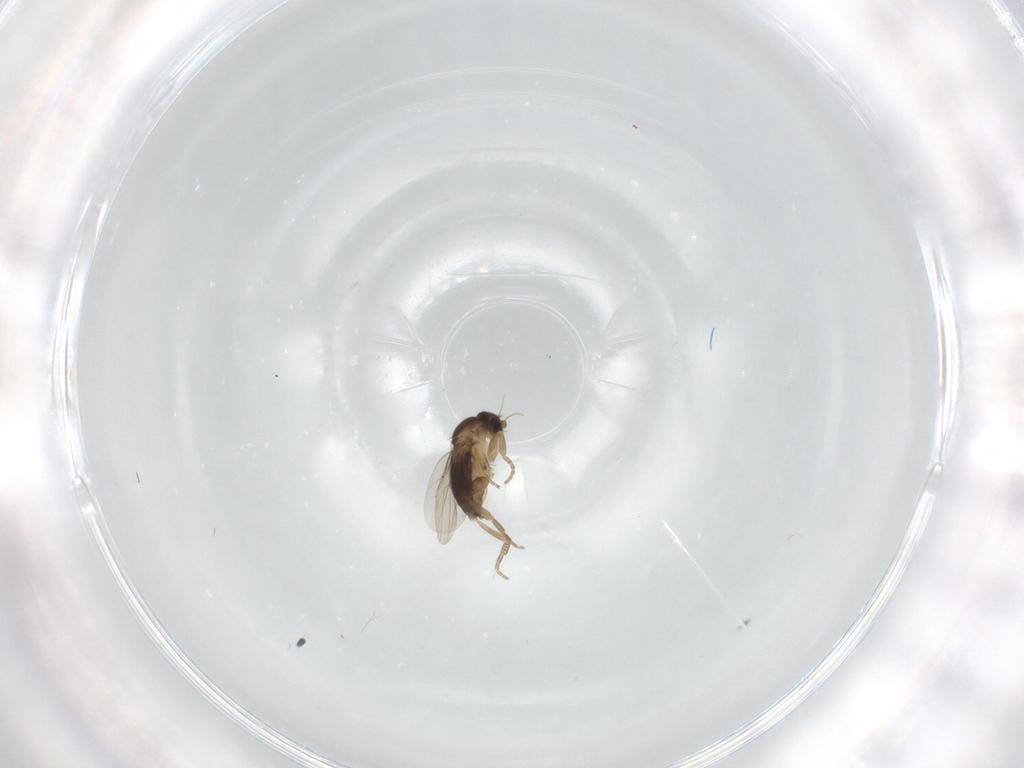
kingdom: Animalia
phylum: Arthropoda
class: Insecta
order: Diptera
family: Phoridae
